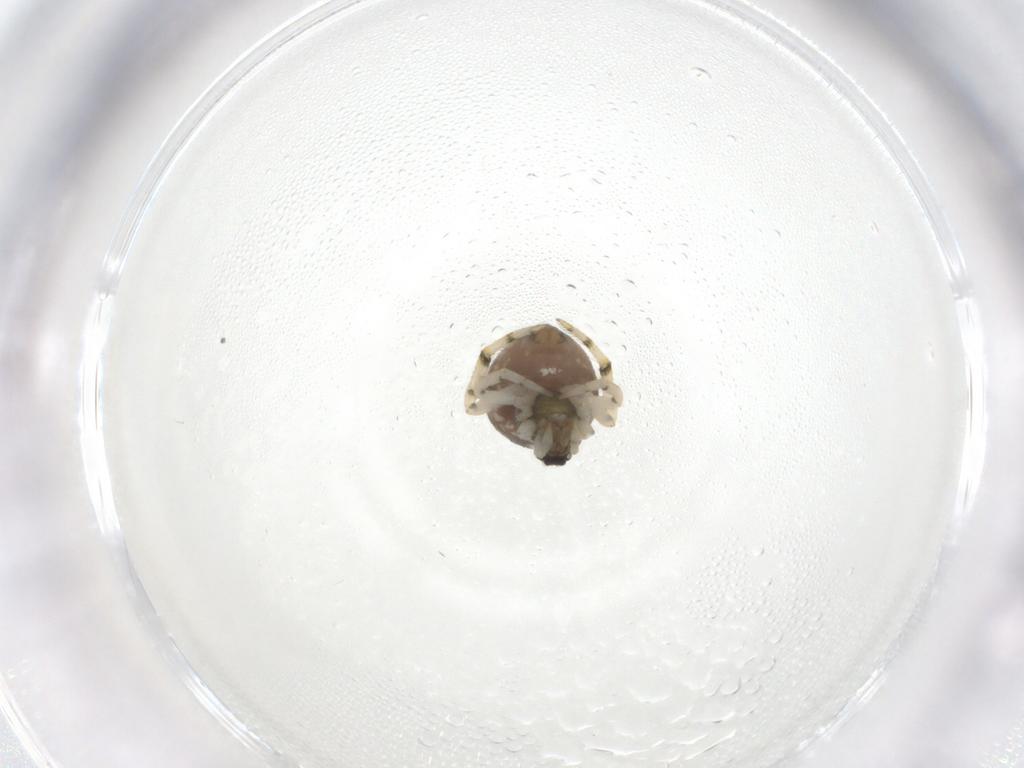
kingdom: Animalia
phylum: Arthropoda
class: Arachnida
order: Araneae
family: Theridiidae
